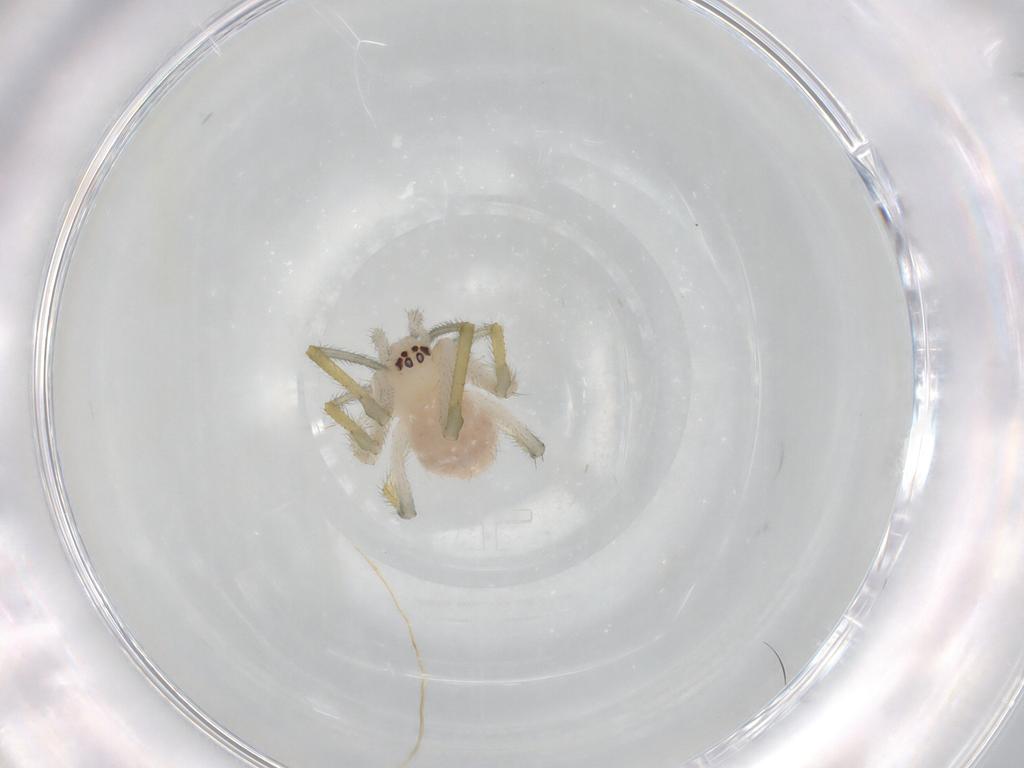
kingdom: Animalia
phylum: Arthropoda
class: Arachnida
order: Araneae
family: Theridiidae
